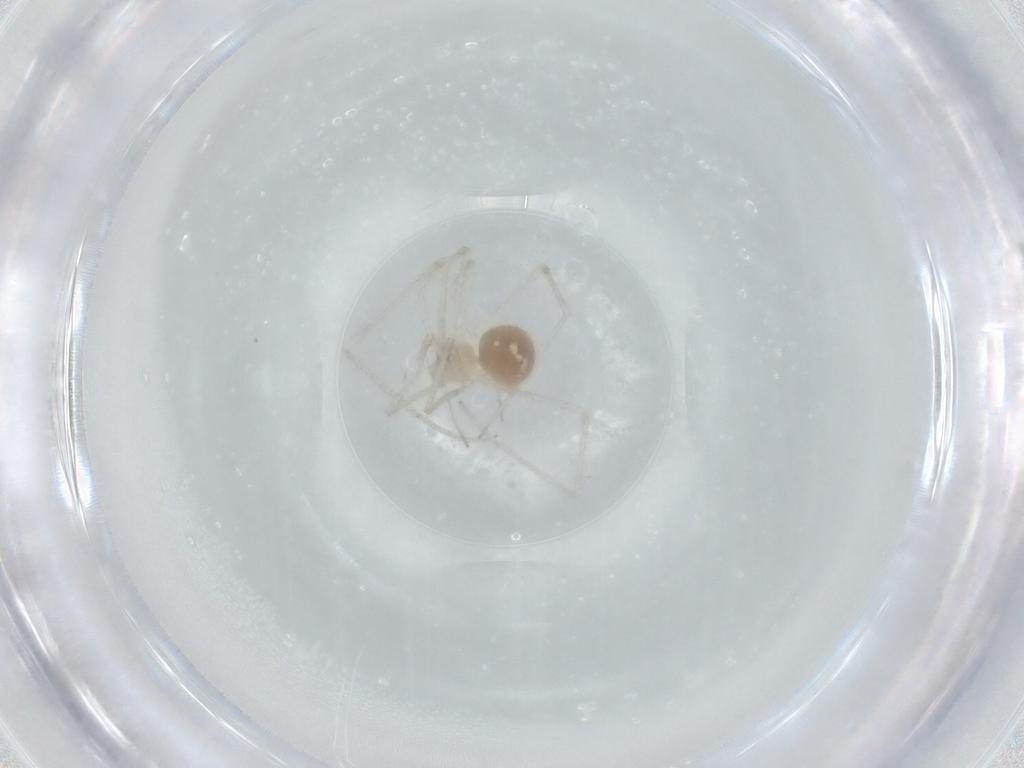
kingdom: Animalia
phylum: Arthropoda
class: Arachnida
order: Araneae
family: Pholcidae
